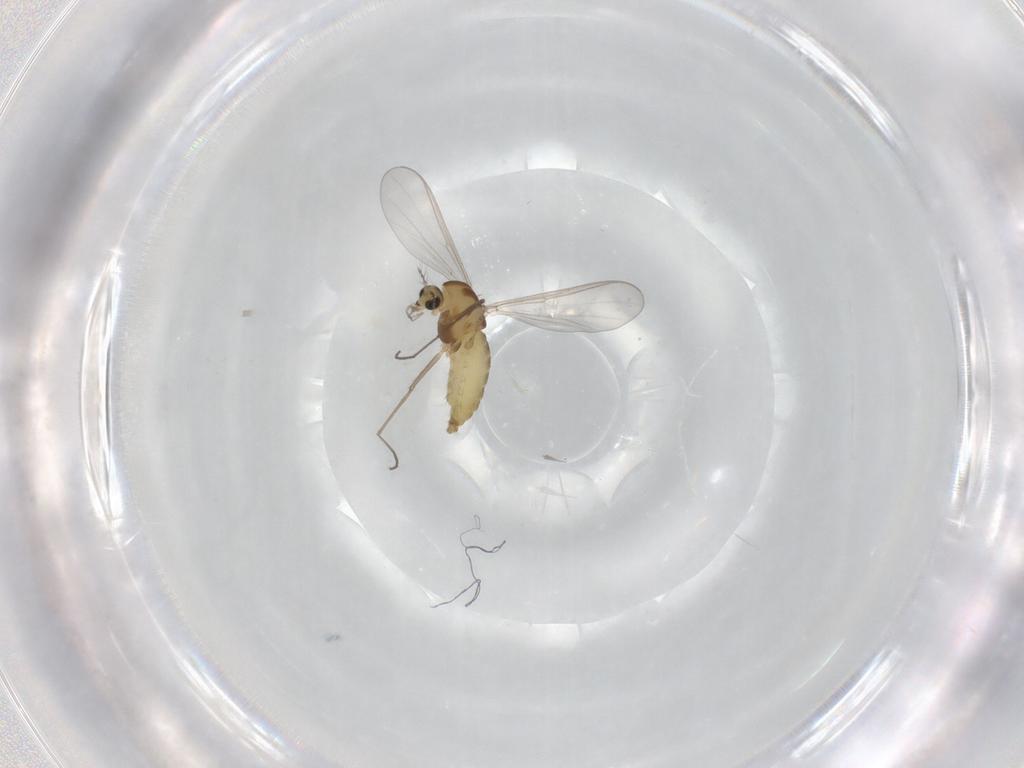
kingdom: Animalia
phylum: Arthropoda
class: Insecta
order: Diptera
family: Chironomidae
